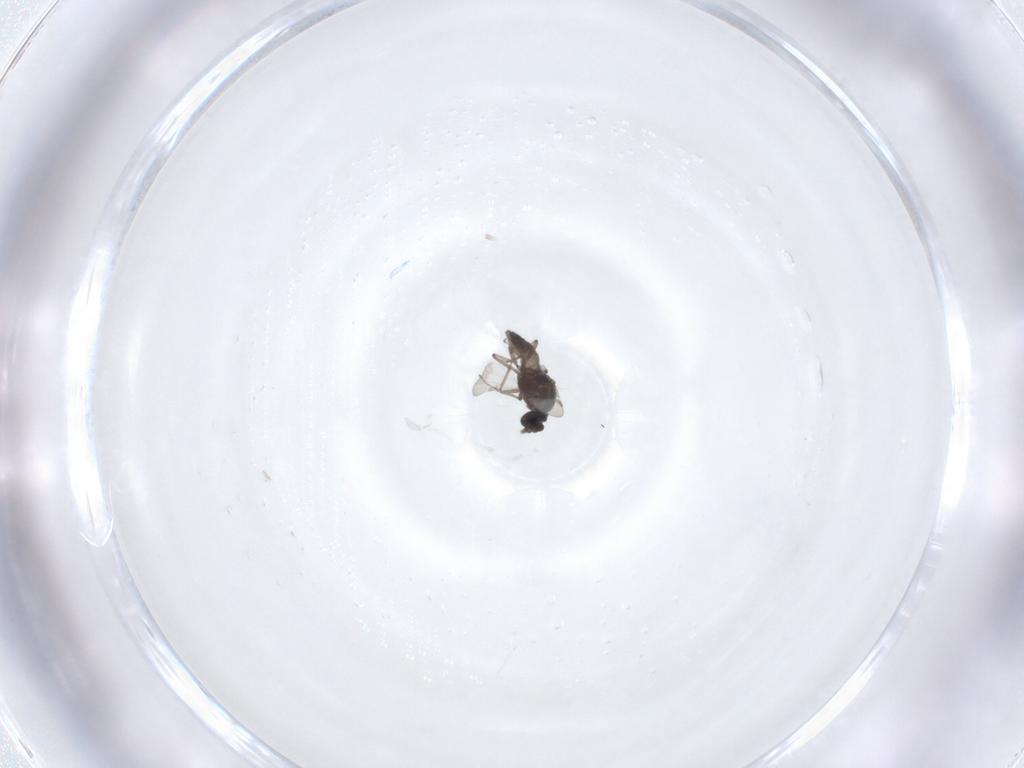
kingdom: Animalia
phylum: Arthropoda
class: Insecta
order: Diptera
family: Ceratopogonidae
